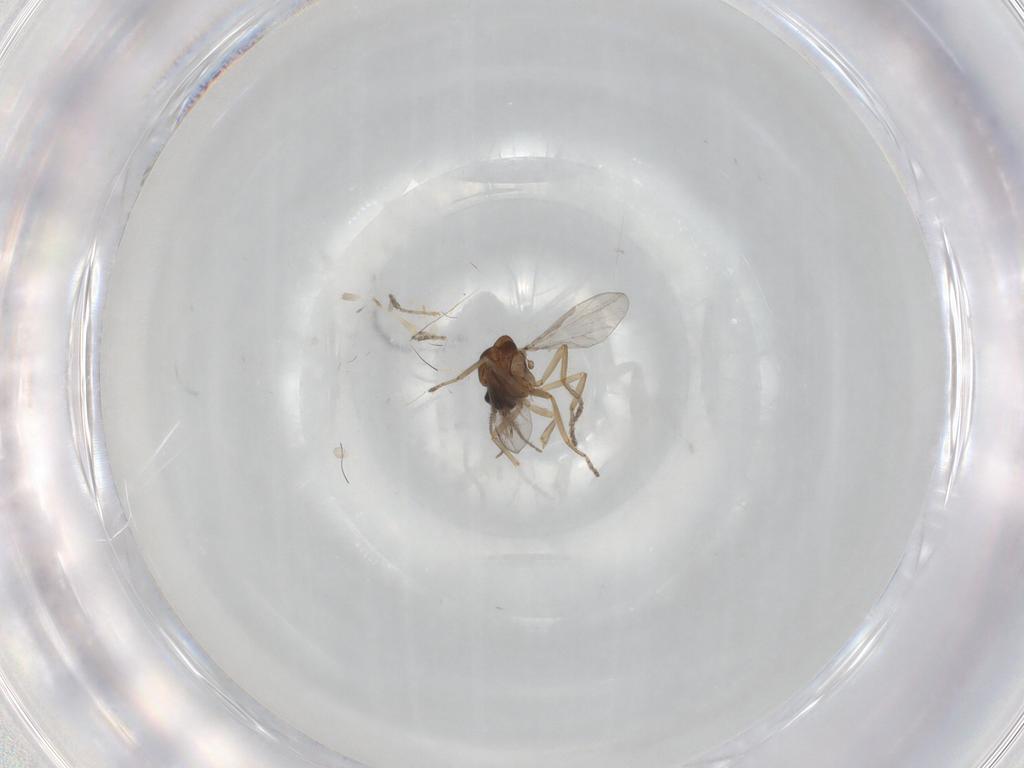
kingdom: Animalia
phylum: Arthropoda
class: Insecta
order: Diptera
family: Ceratopogonidae
